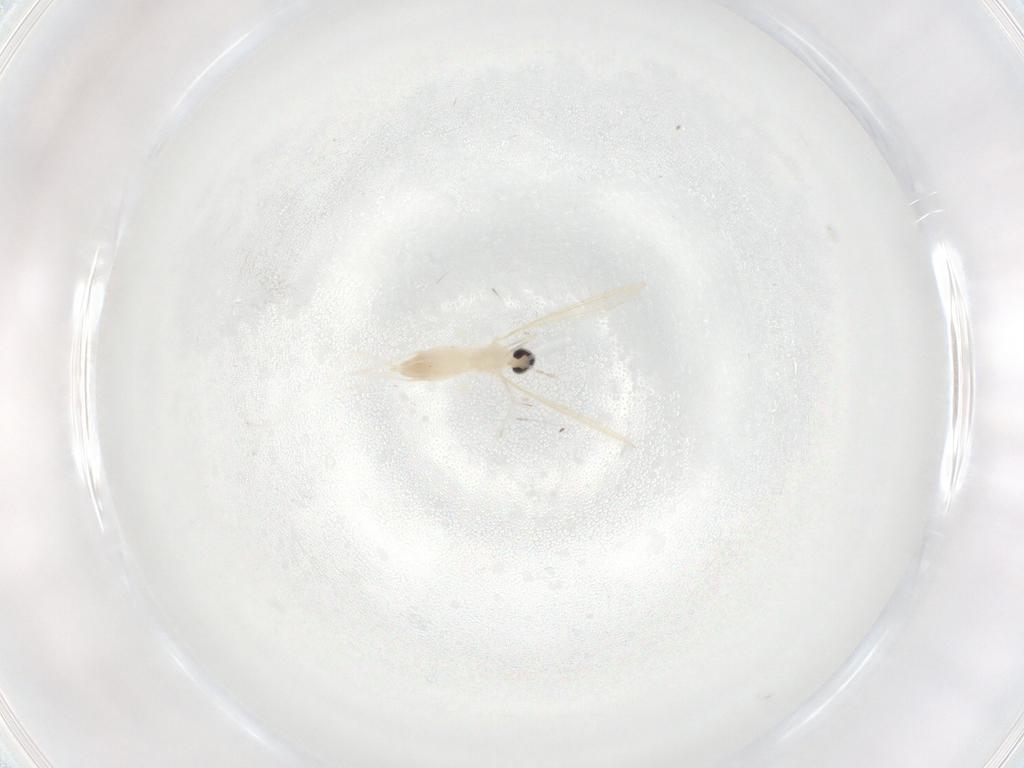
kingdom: Animalia
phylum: Arthropoda
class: Insecta
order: Diptera
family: Cecidomyiidae
